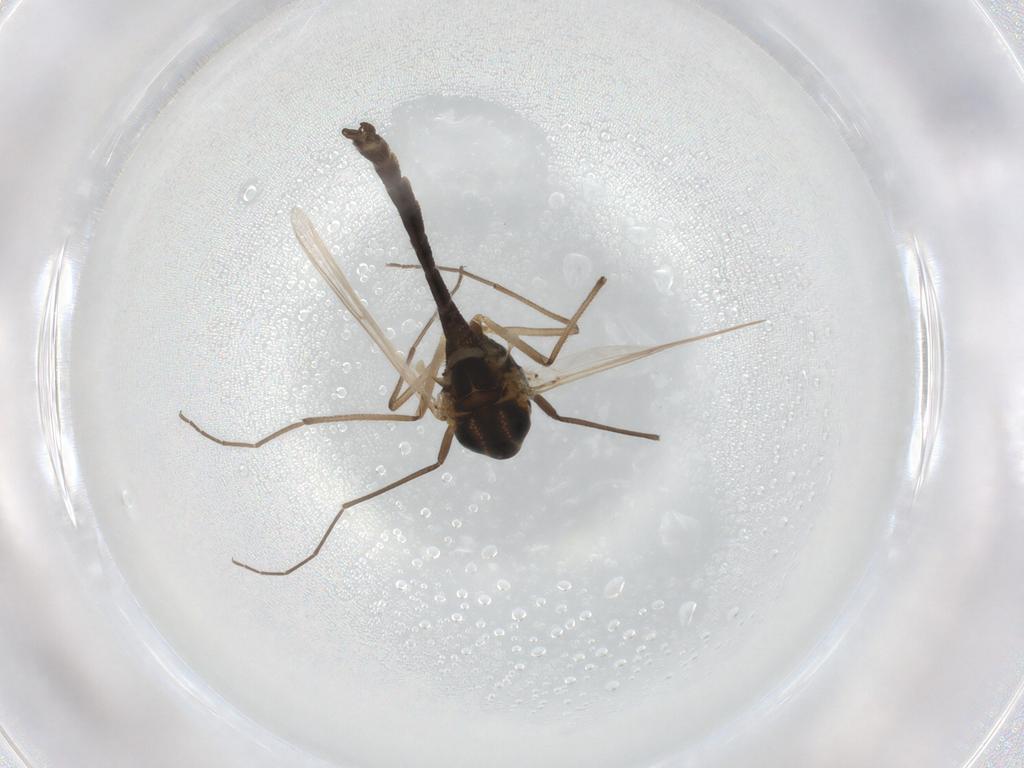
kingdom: Animalia
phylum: Arthropoda
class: Insecta
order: Diptera
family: Chironomidae
